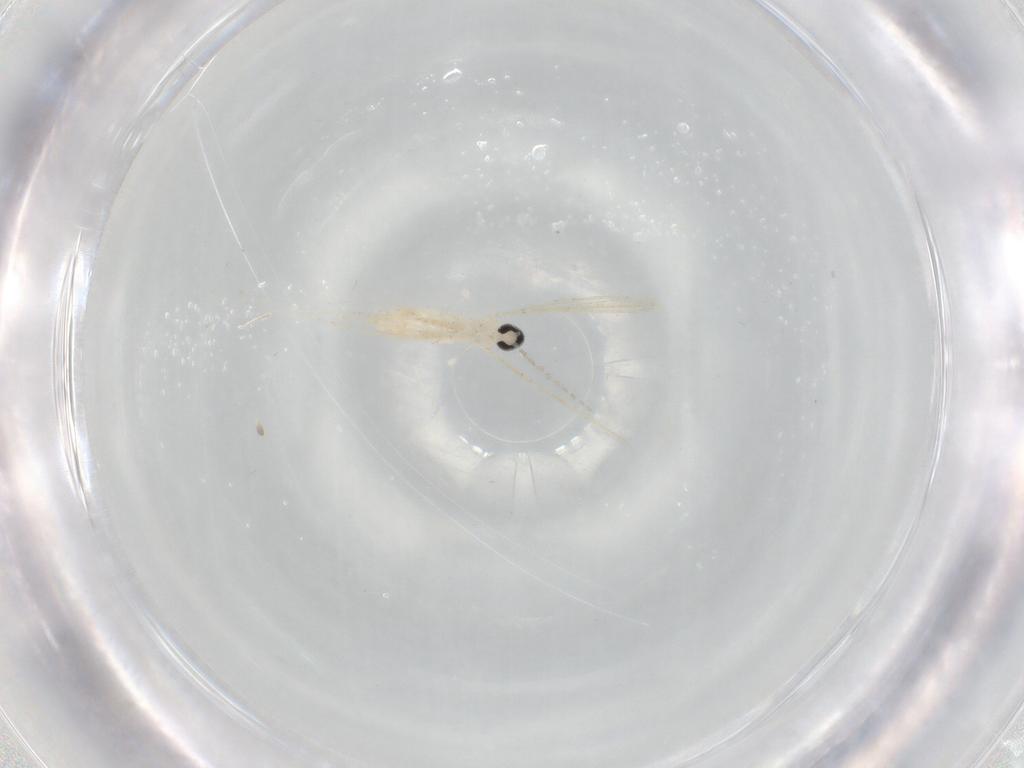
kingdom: Animalia
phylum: Arthropoda
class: Insecta
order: Diptera
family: Cecidomyiidae
